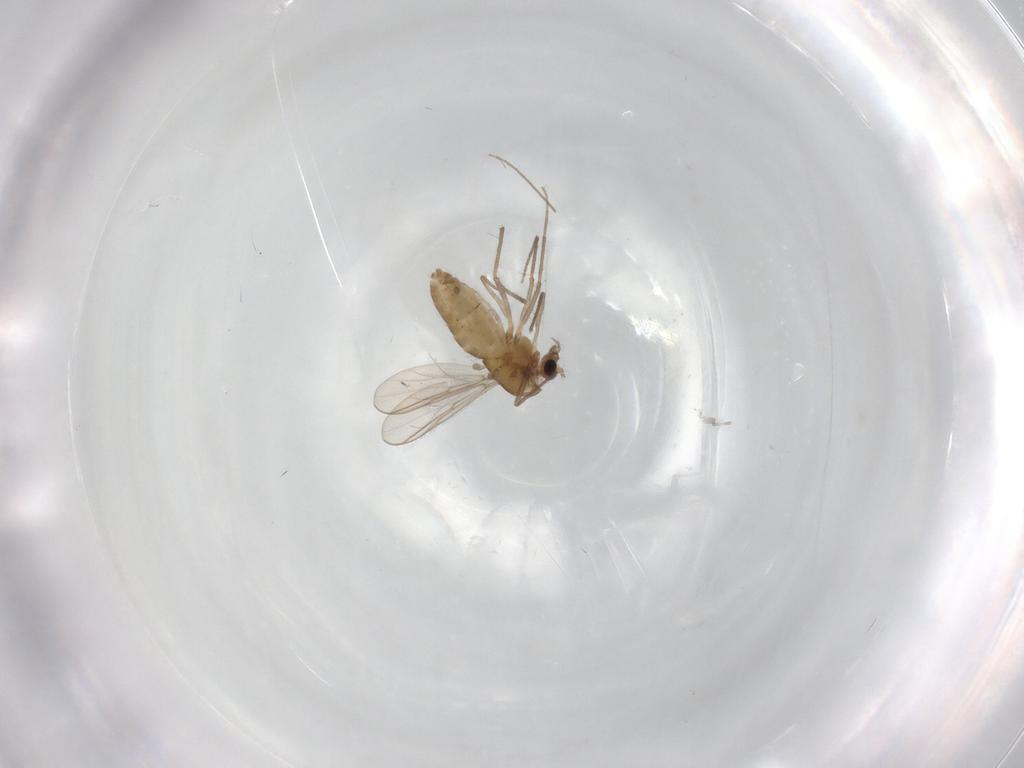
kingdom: Animalia
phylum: Arthropoda
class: Insecta
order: Diptera
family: Chironomidae
